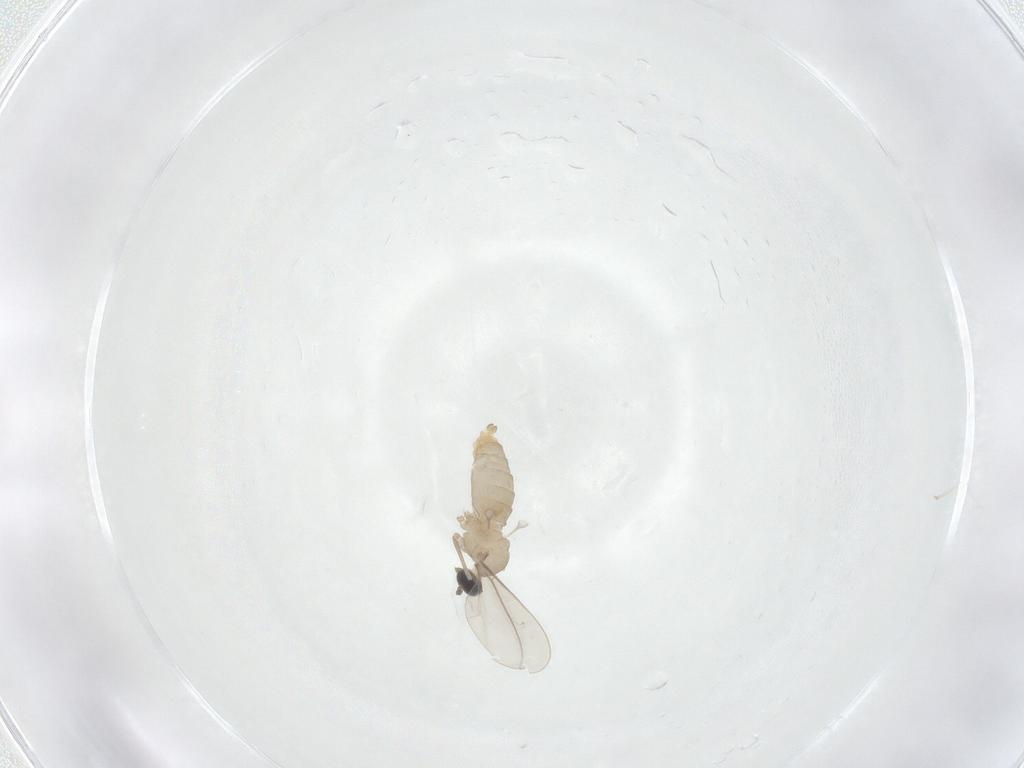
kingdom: Animalia
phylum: Arthropoda
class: Insecta
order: Diptera
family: Cecidomyiidae
